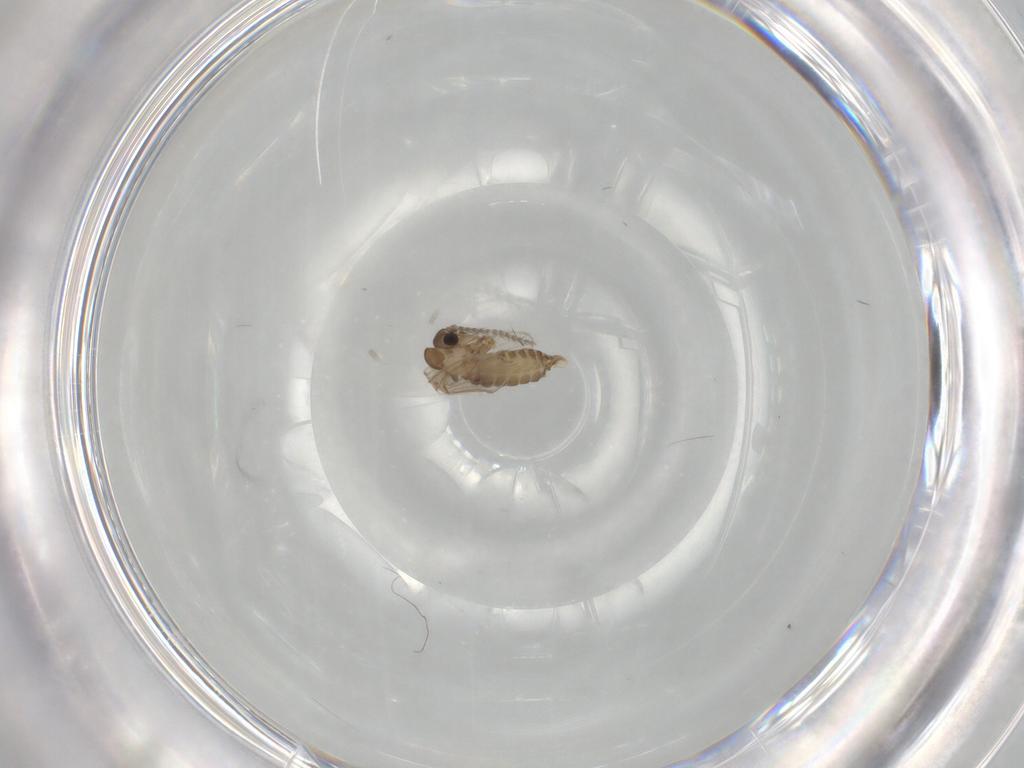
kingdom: Animalia
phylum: Arthropoda
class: Insecta
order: Diptera
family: Psychodidae
